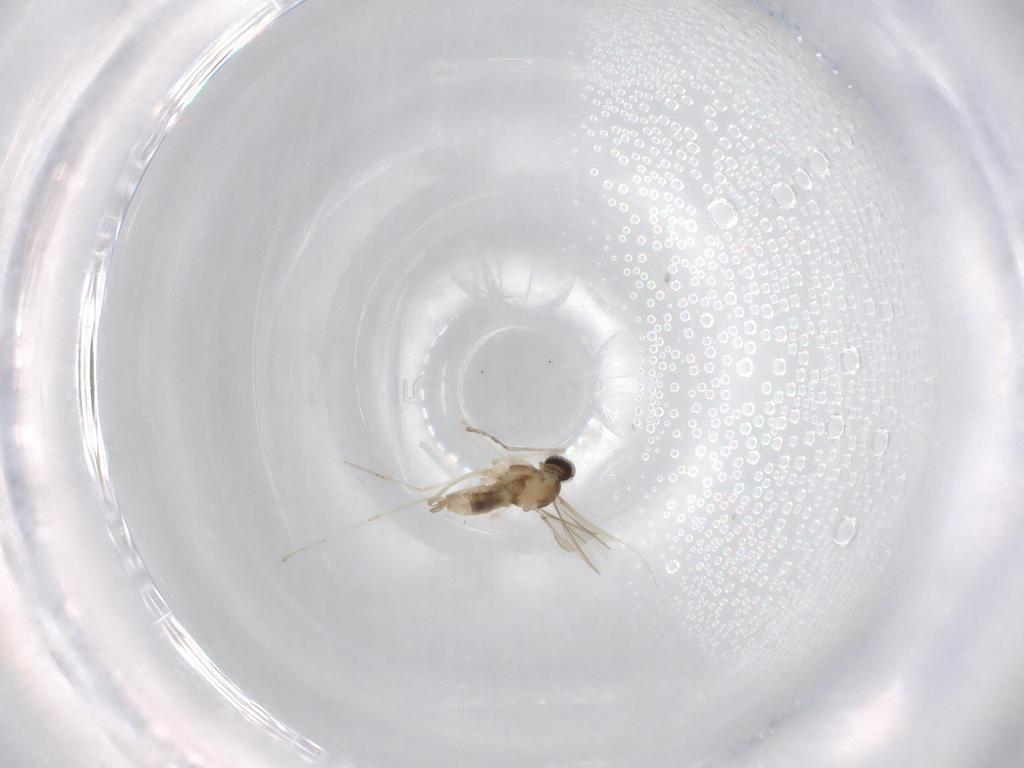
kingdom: Animalia
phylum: Arthropoda
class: Insecta
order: Diptera
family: Cecidomyiidae
